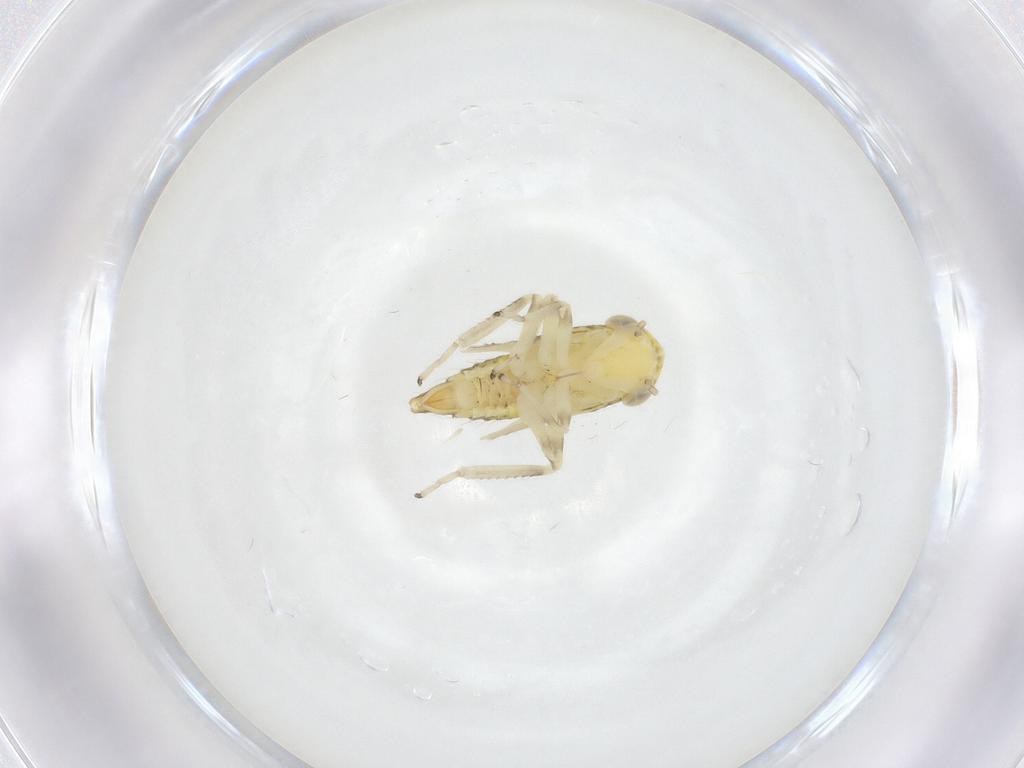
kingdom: Animalia
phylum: Arthropoda
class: Insecta
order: Hemiptera
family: Cicadellidae
